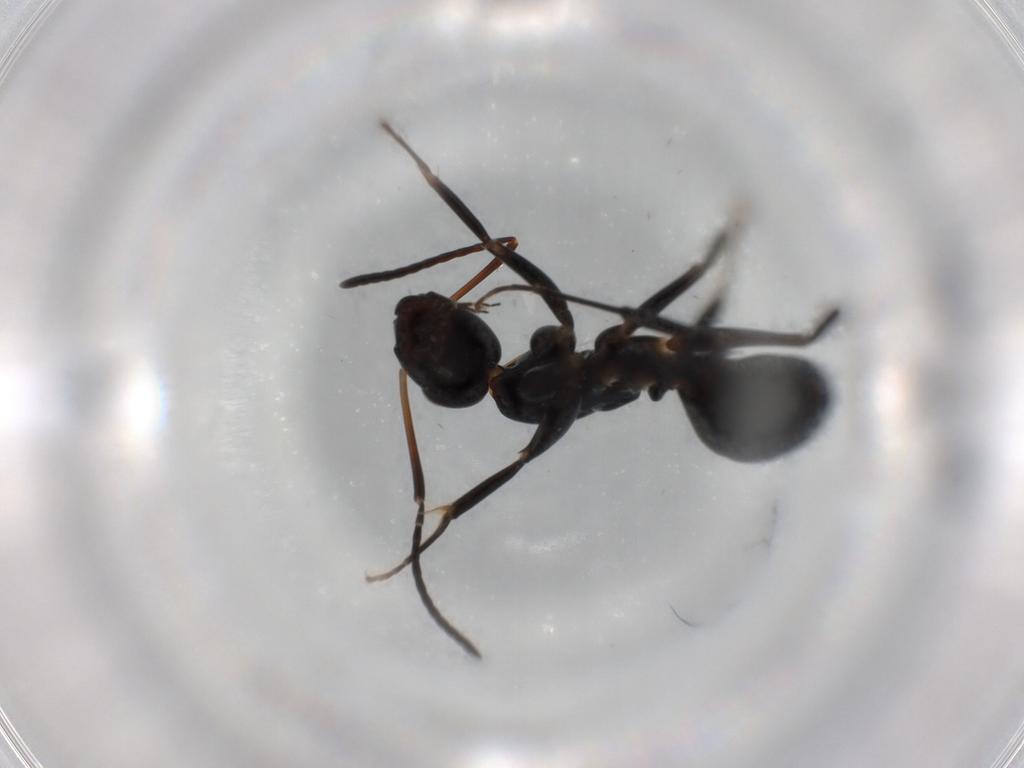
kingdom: Animalia
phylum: Arthropoda
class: Insecta
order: Hymenoptera
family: Formicidae
